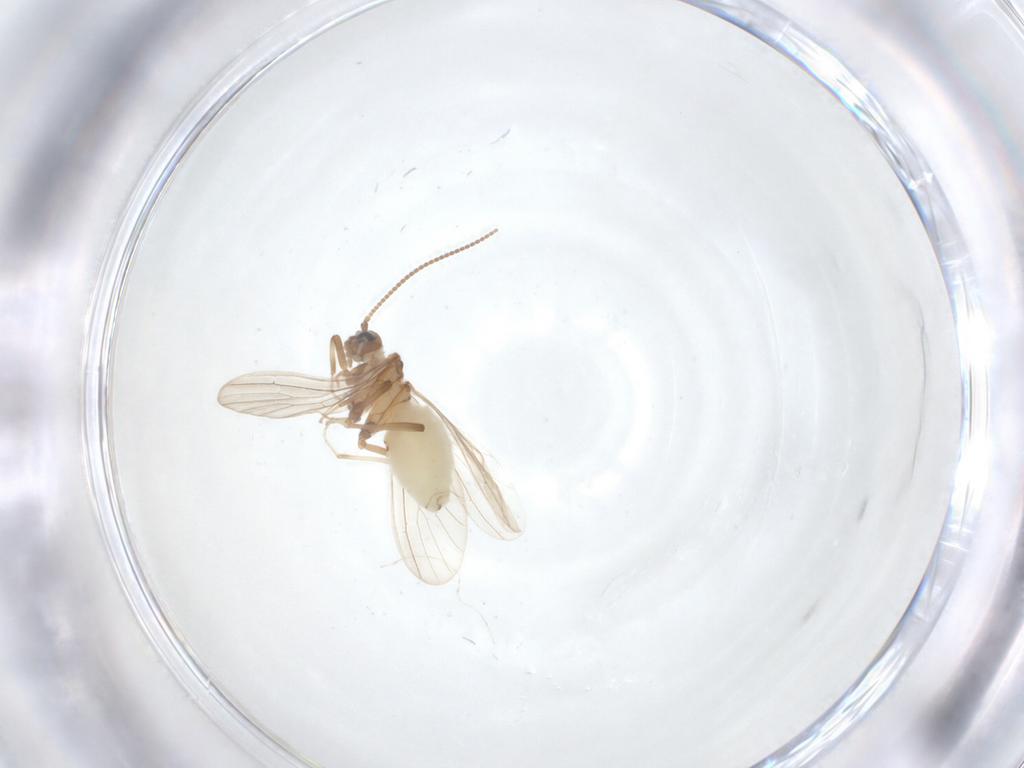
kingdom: Animalia
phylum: Arthropoda
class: Insecta
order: Neuroptera
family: Coniopterygidae
